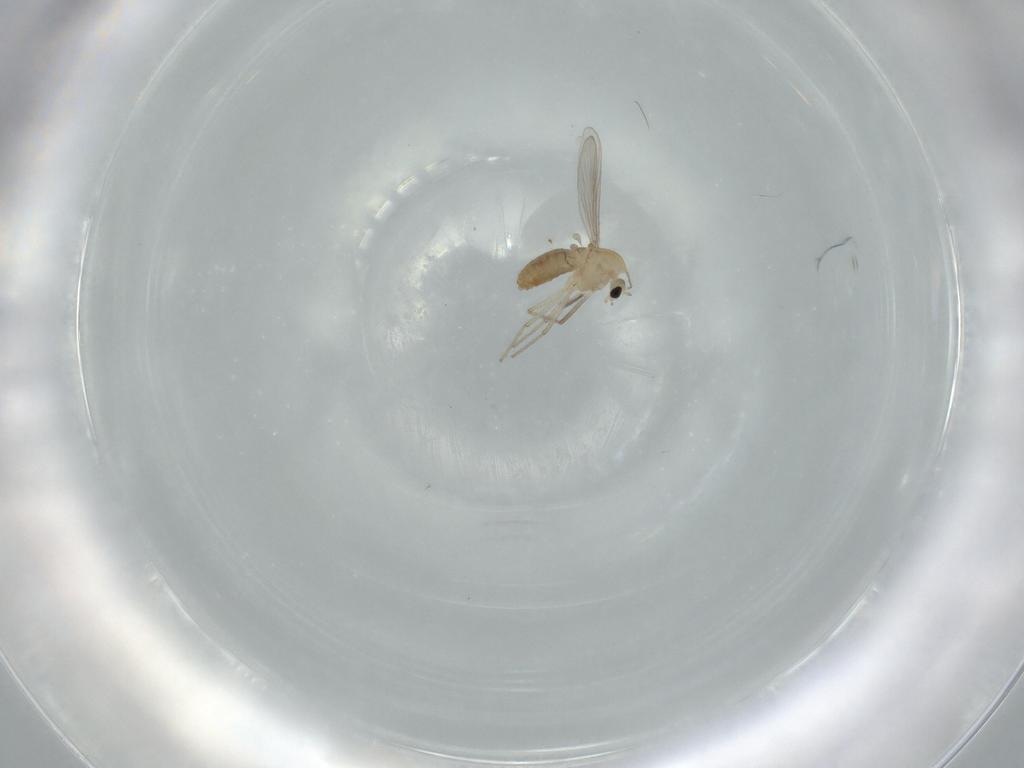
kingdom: Animalia
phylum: Arthropoda
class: Insecta
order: Diptera
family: Chironomidae
